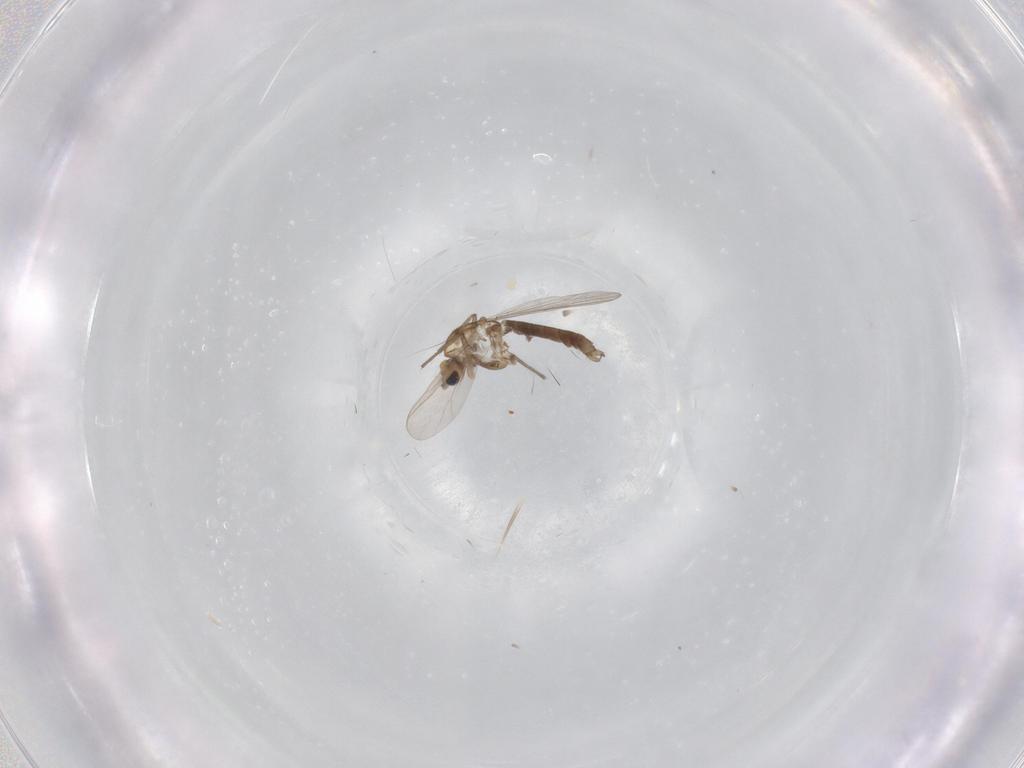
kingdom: Animalia
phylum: Arthropoda
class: Insecta
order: Diptera
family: Chironomidae
